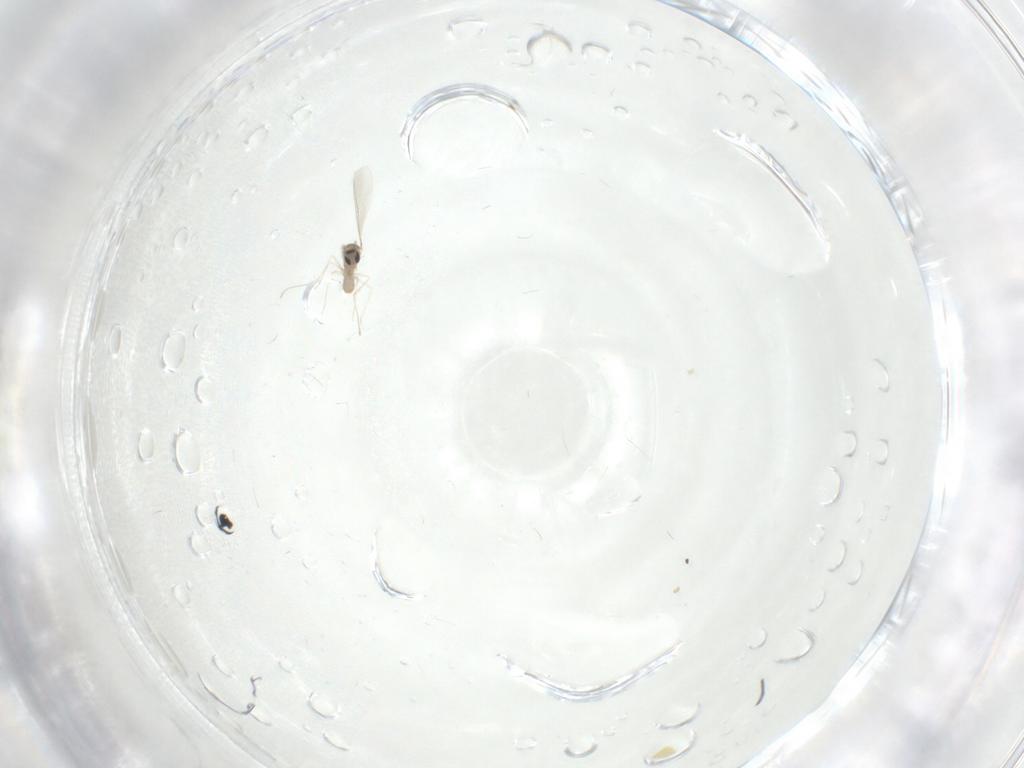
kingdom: Animalia
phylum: Arthropoda
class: Insecta
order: Diptera
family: Cecidomyiidae
